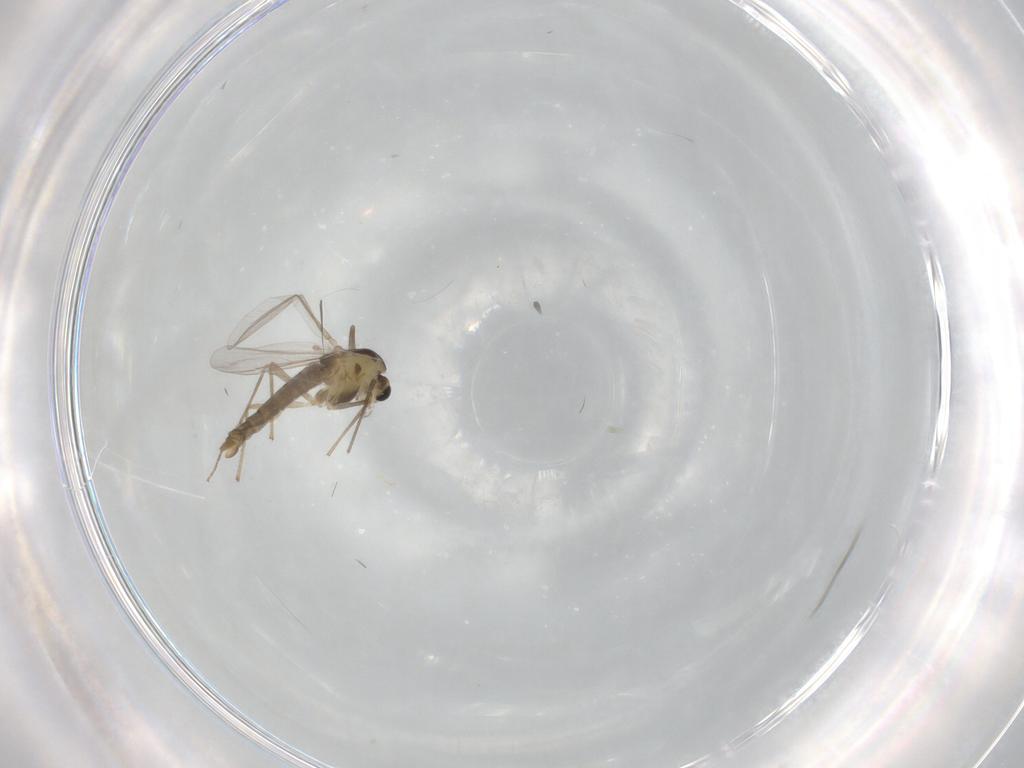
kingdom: Animalia
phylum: Arthropoda
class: Insecta
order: Diptera
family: Chironomidae
